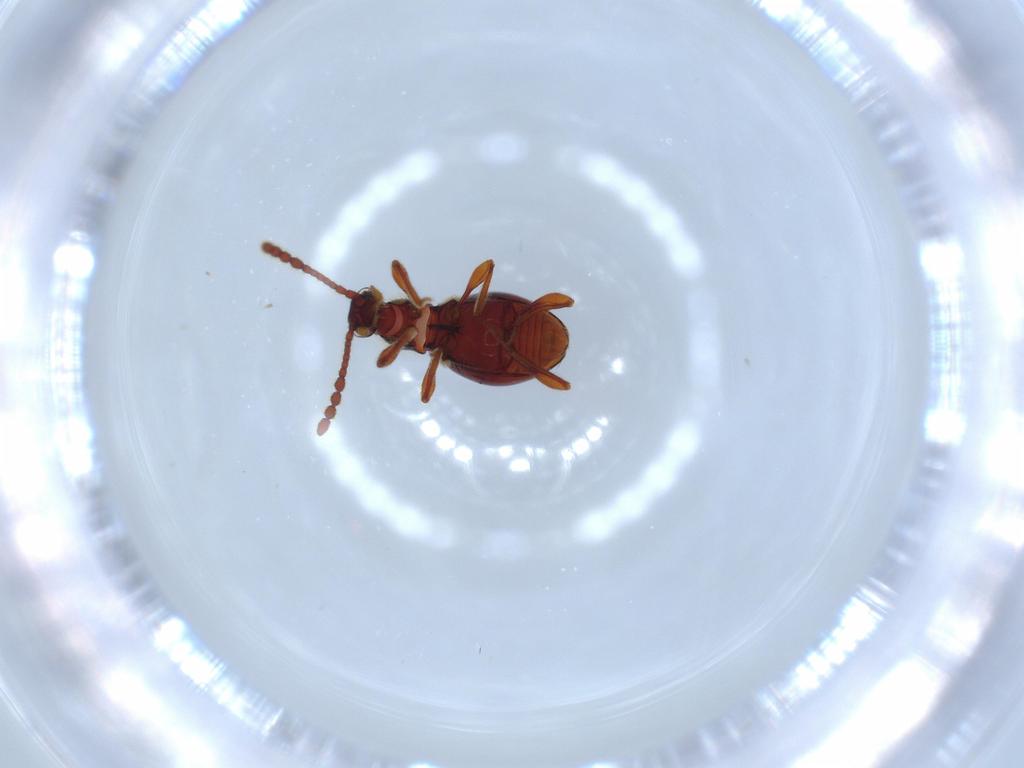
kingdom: Animalia
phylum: Arthropoda
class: Insecta
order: Coleoptera
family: Staphylinidae
